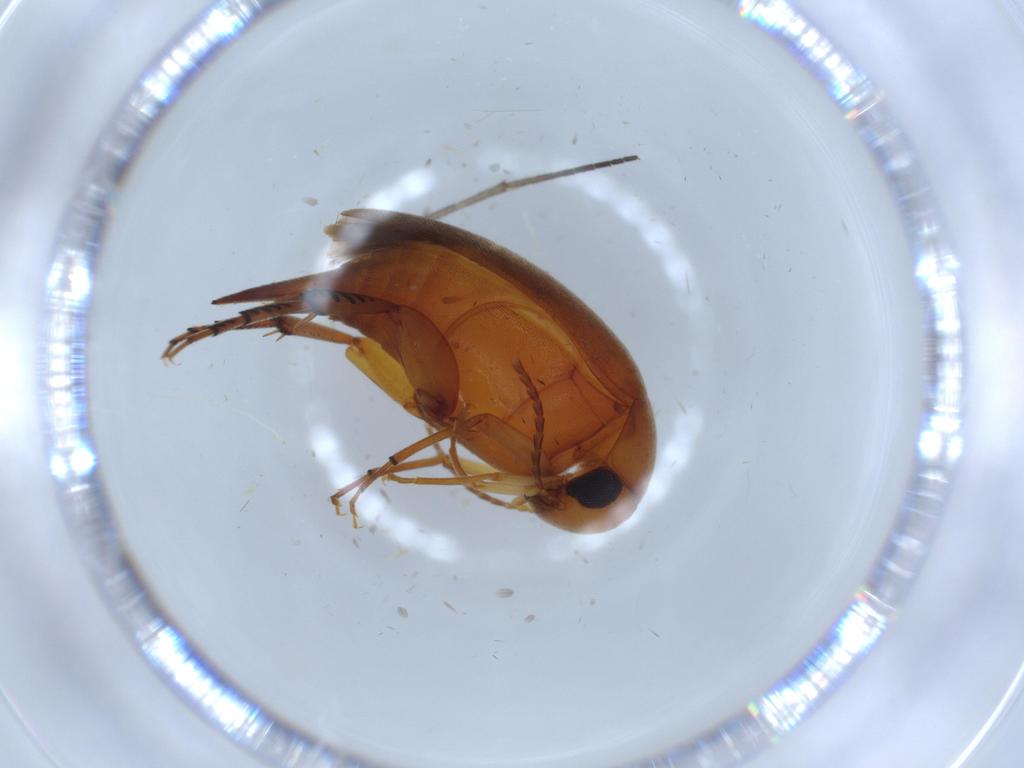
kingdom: Animalia
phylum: Arthropoda
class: Insecta
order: Coleoptera
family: Mordellidae
